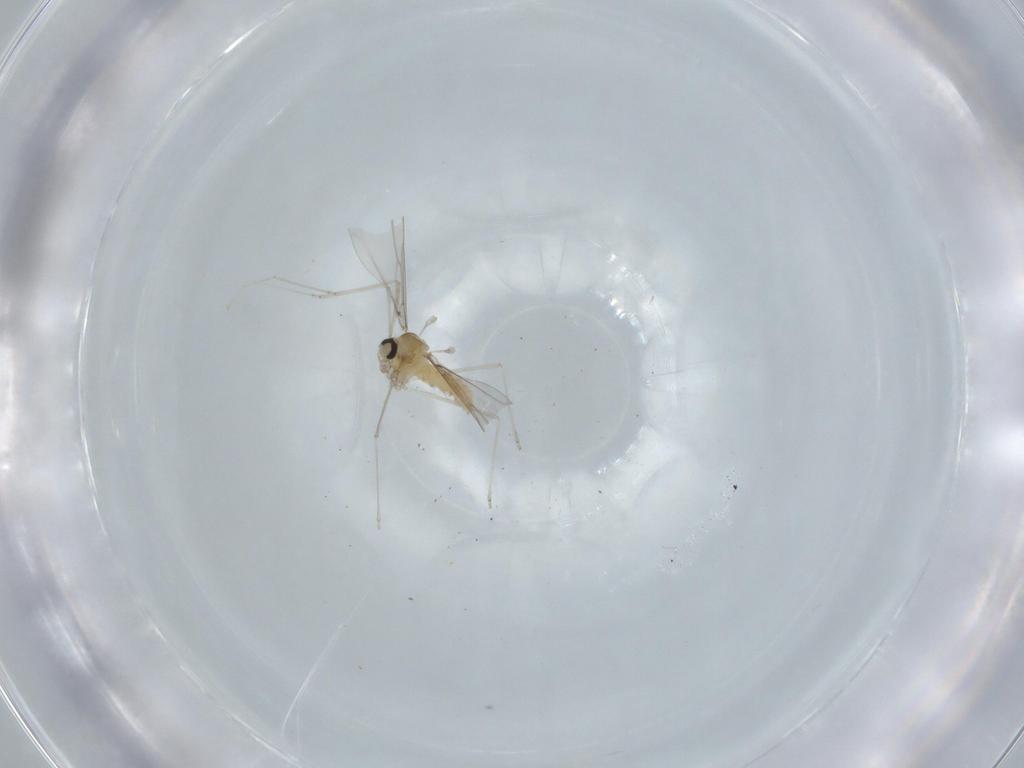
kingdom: Animalia
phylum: Arthropoda
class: Insecta
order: Diptera
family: Cecidomyiidae
